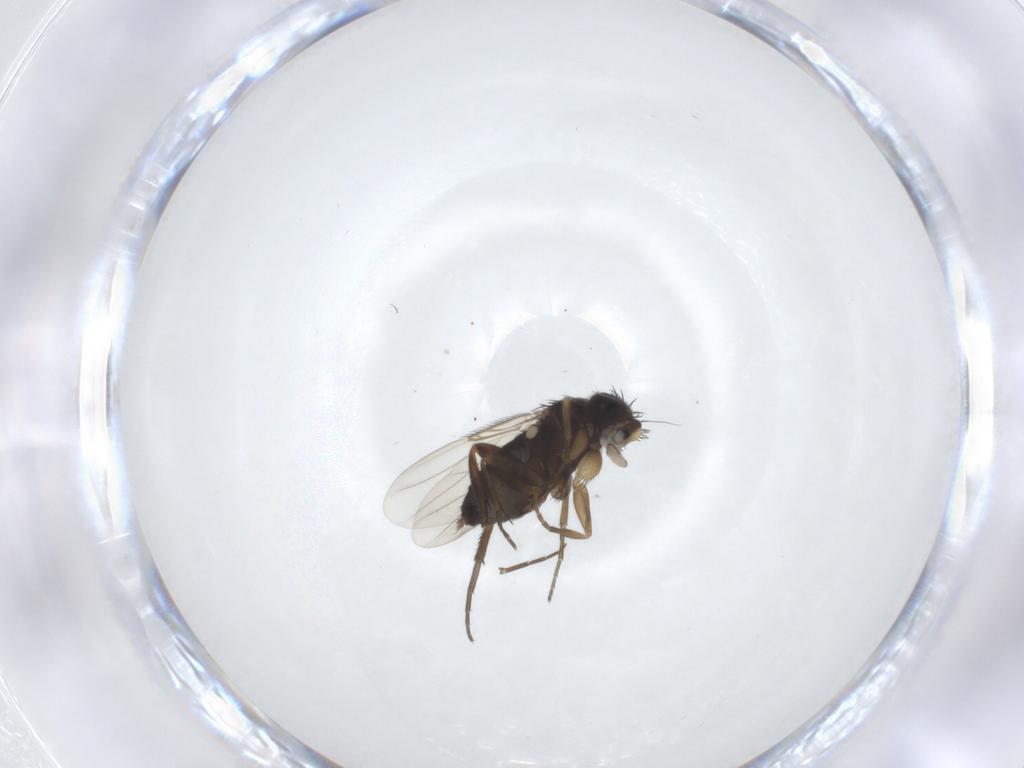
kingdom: Animalia
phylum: Arthropoda
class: Insecta
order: Diptera
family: Phoridae
